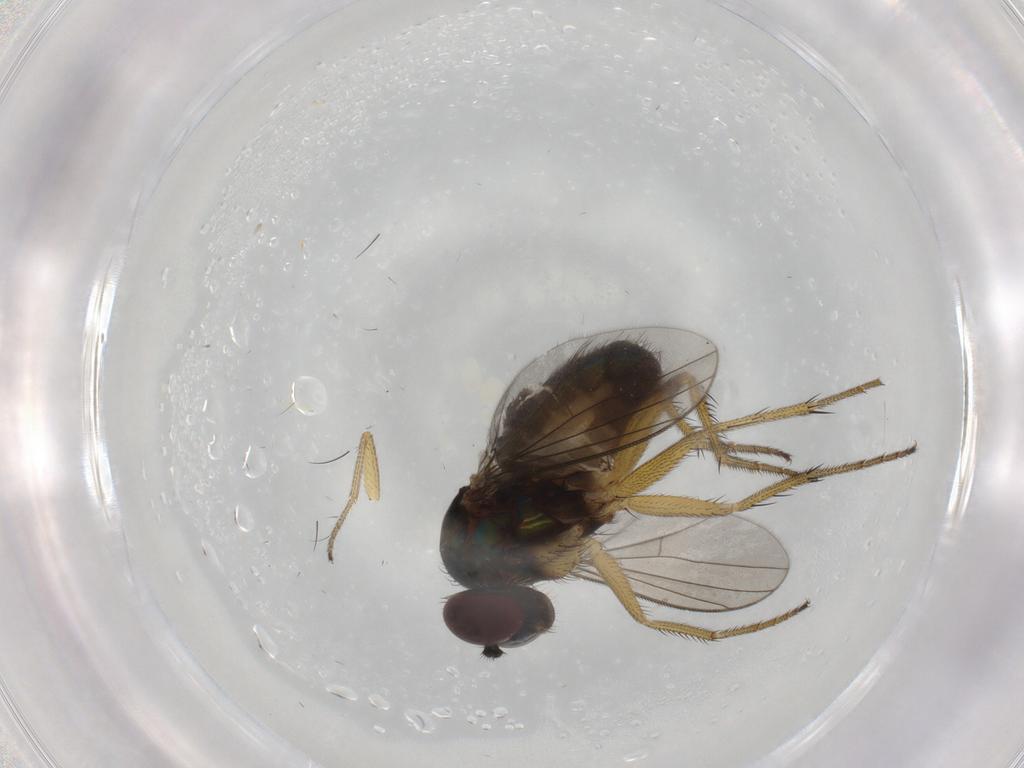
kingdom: Animalia
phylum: Arthropoda
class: Insecta
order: Diptera
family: Dolichopodidae
